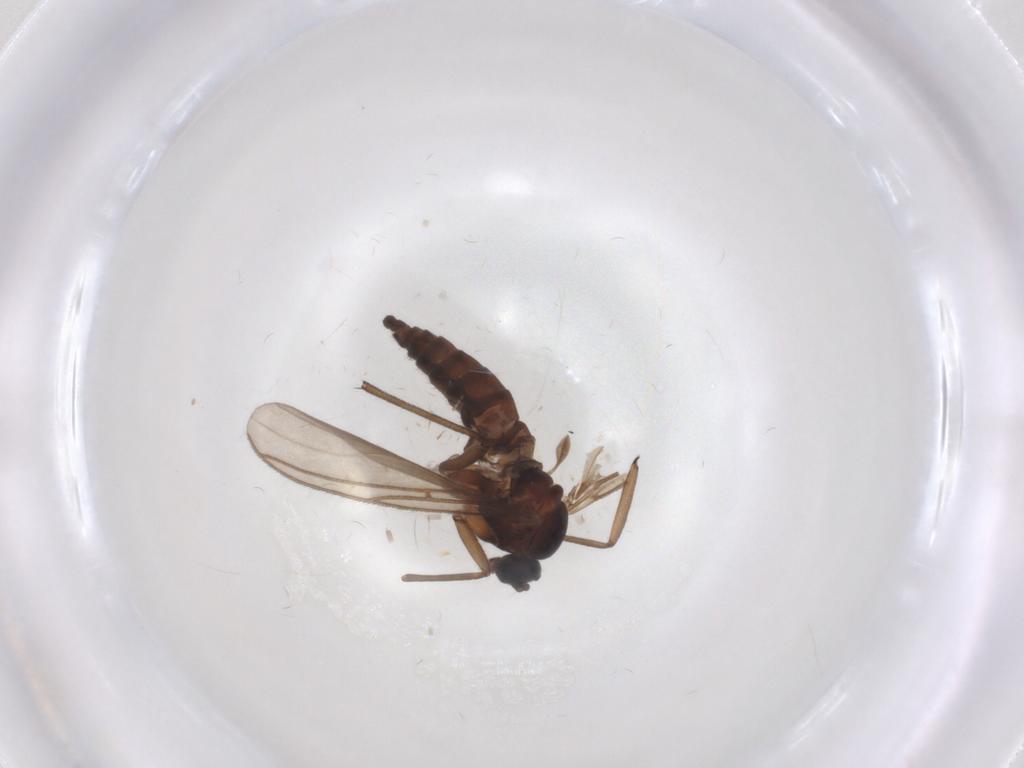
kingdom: Animalia
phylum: Arthropoda
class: Insecta
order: Diptera
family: Sciaridae
